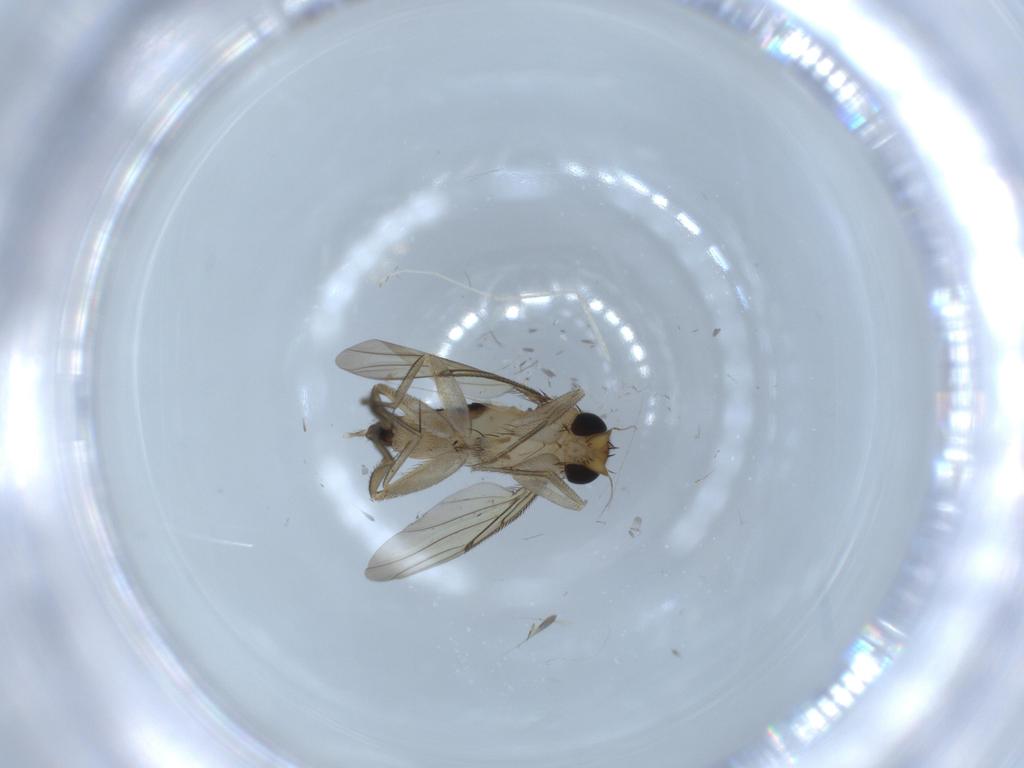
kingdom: Animalia
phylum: Arthropoda
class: Insecta
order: Diptera
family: Phoridae
